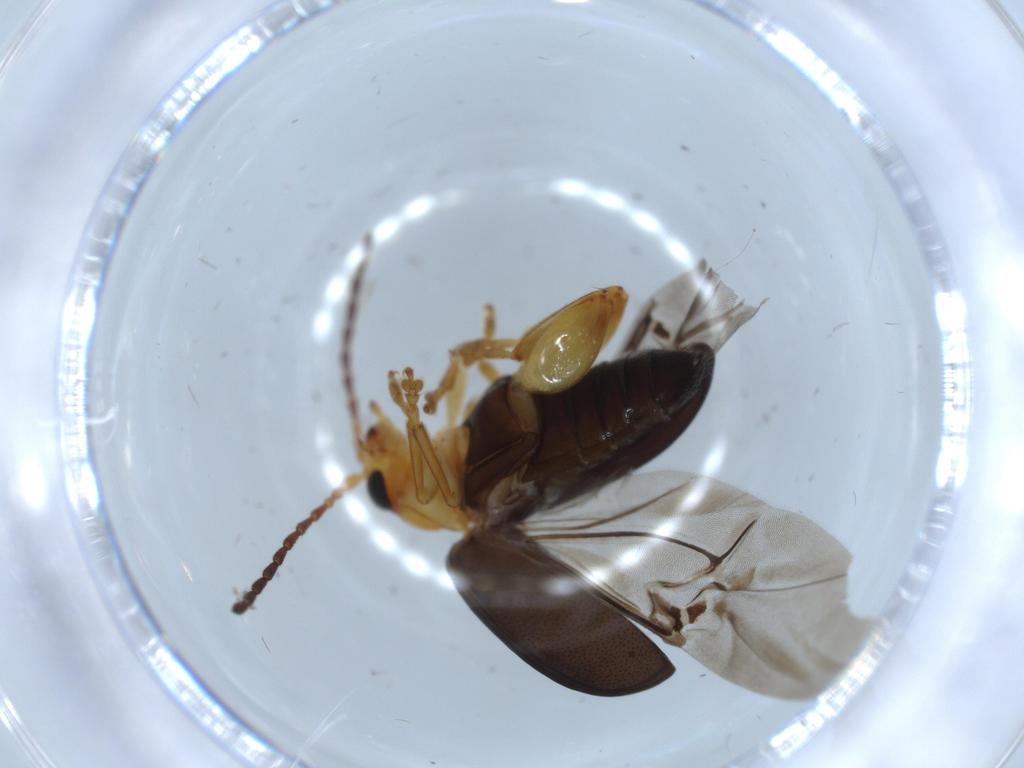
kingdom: Animalia
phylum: Arthropoda
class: Insecta
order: Coleoptera
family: Chrysomelidae
